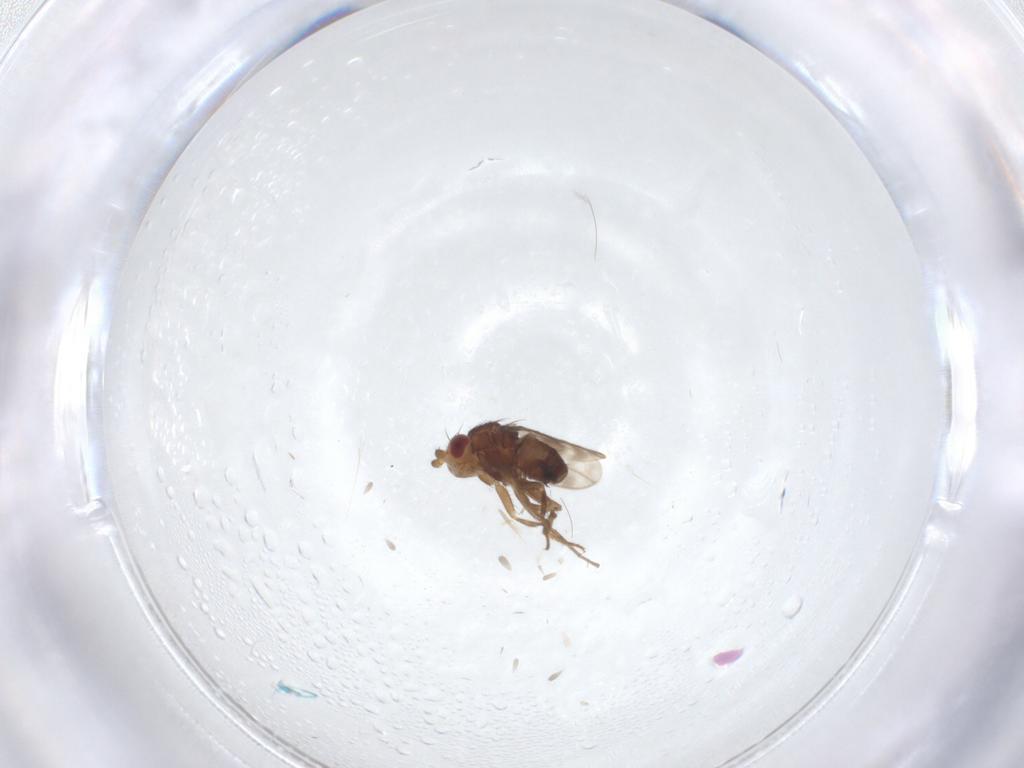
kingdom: Animalia
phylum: Arthropoda
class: Insecta
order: Diptera
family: Sphaeroceridae
